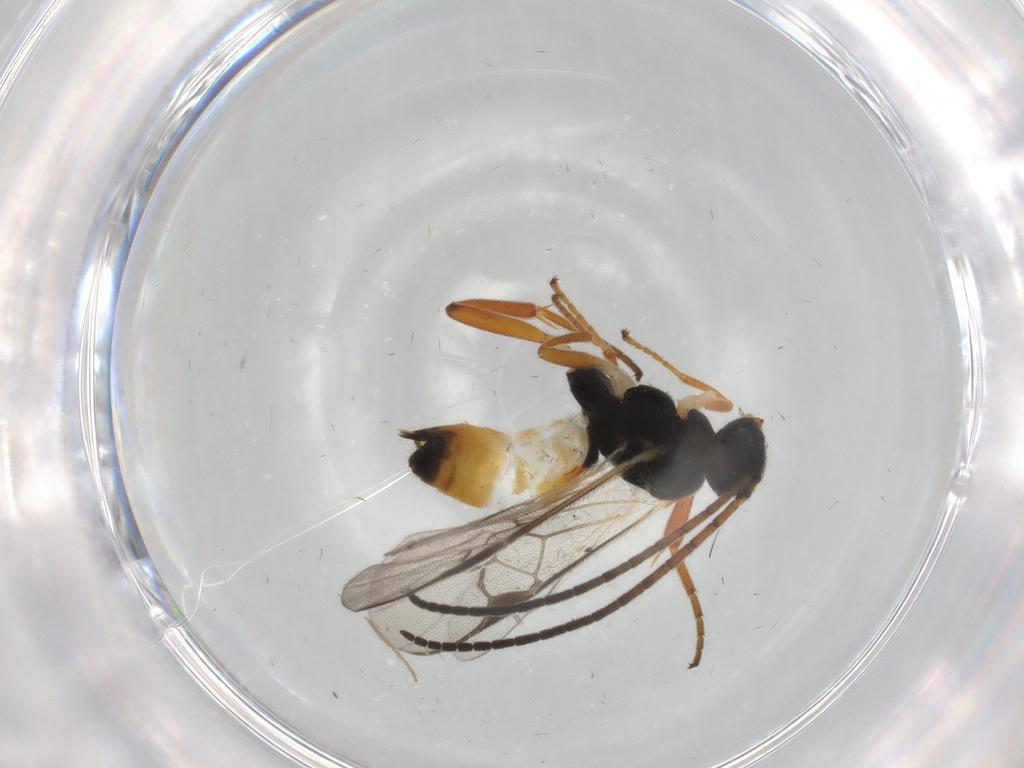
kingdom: Animalia
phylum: Arthropoda
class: Insecta
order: Hymenoptera
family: Braconidae
